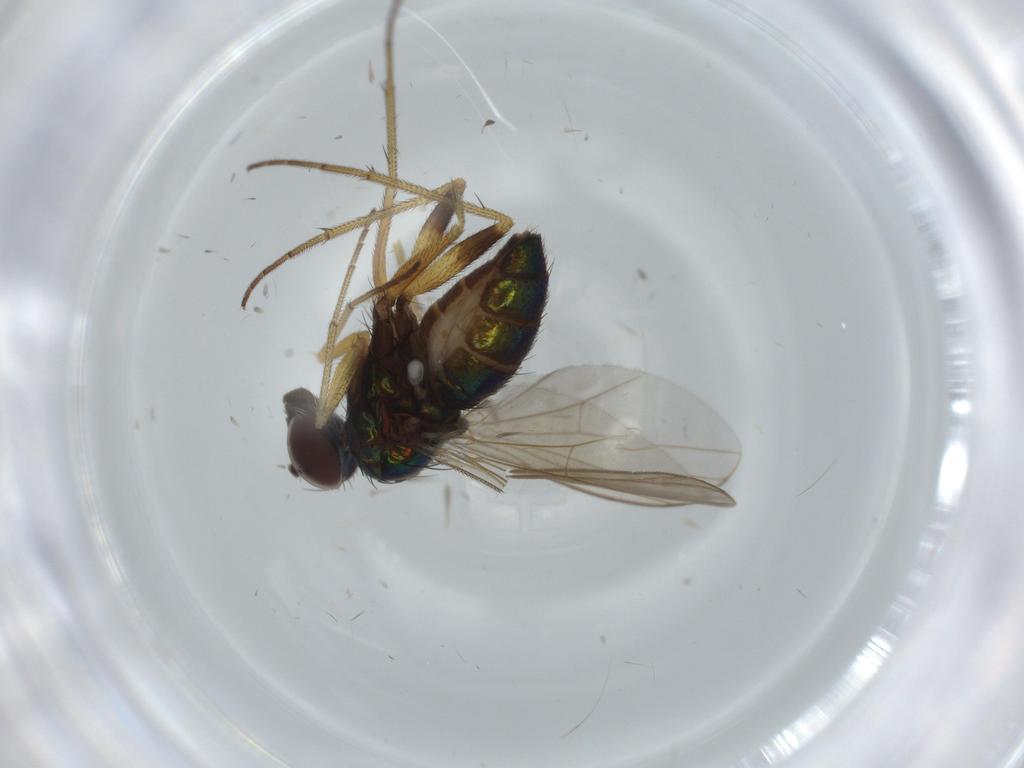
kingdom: Animalia
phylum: Arthropoda
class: Insecta
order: Diptera
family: Dolichopodidae
